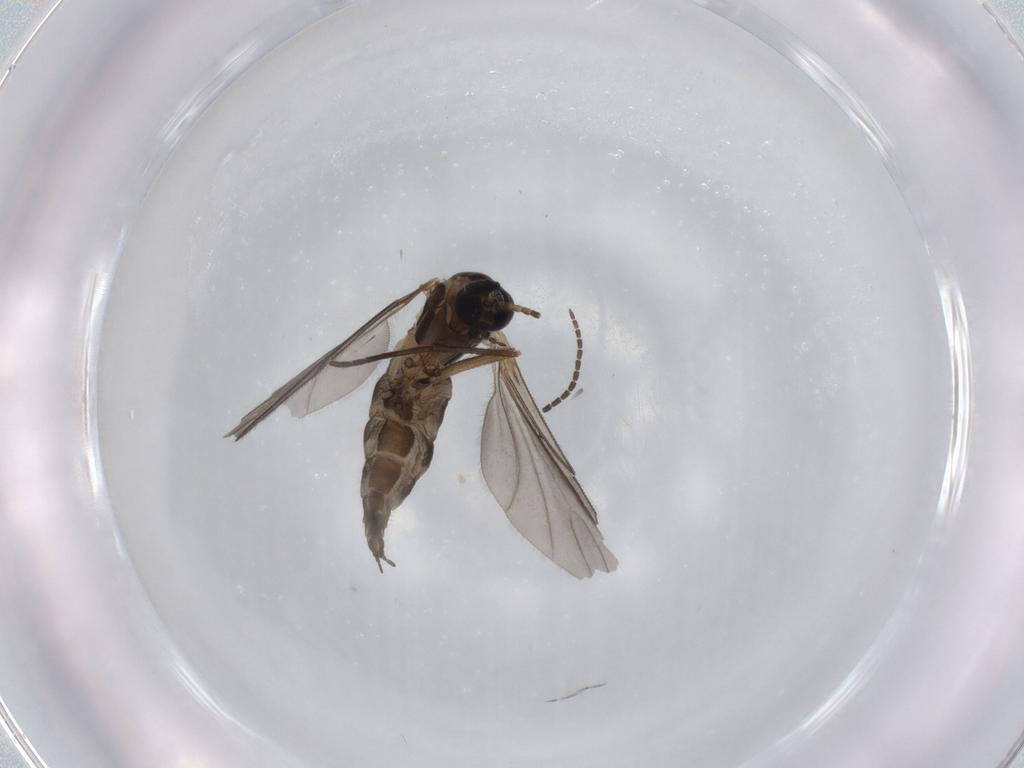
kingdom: Animalia
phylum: Arthropoda
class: Insecta
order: Diptera
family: Sciaridae
